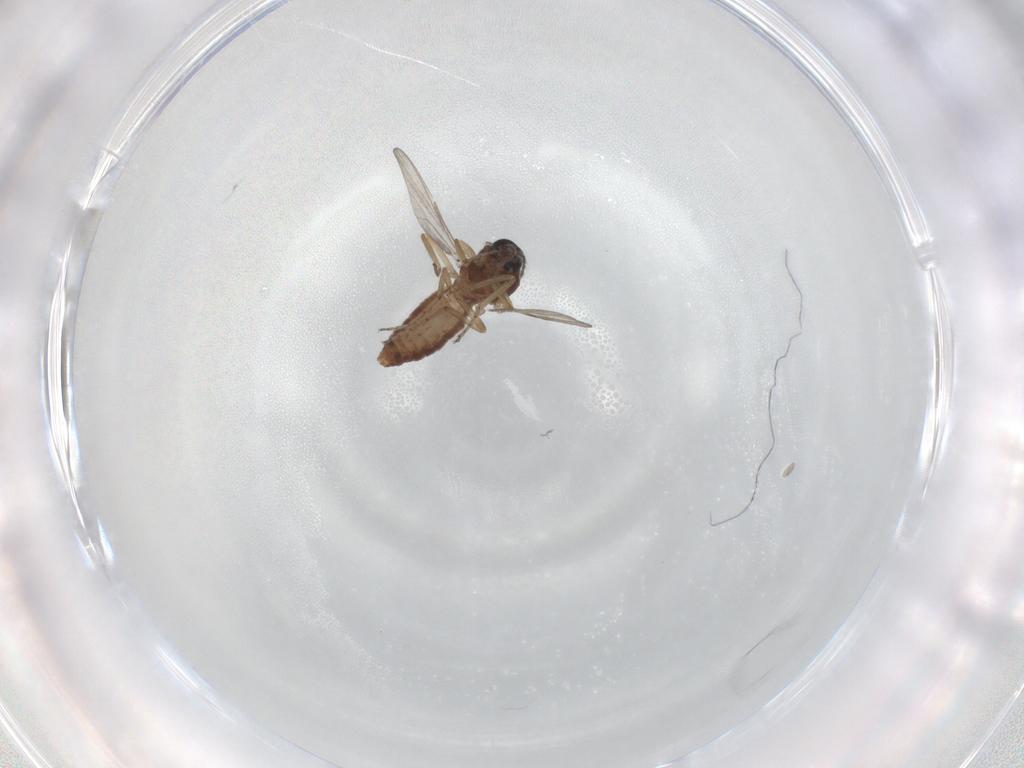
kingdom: Animalia
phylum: Arthropoda
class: Insecta
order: Diptera
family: Ceratopogonidae
